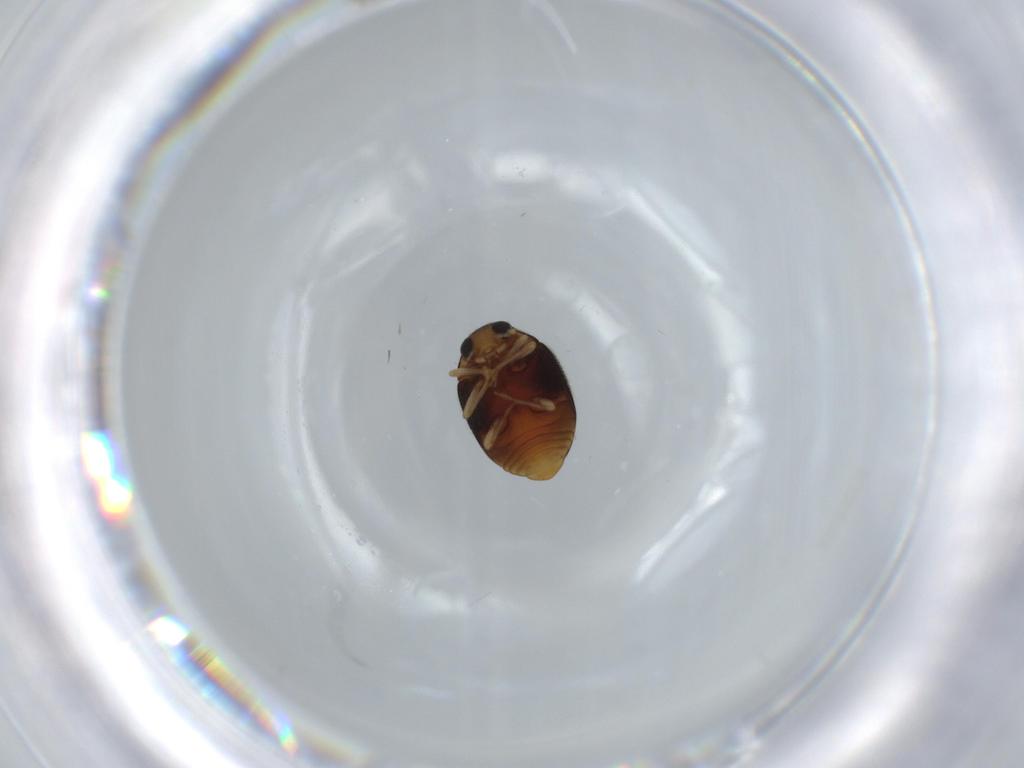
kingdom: Animalia
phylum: Arthropoda
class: Insecta
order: Coleoptera
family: Coccinellidae
